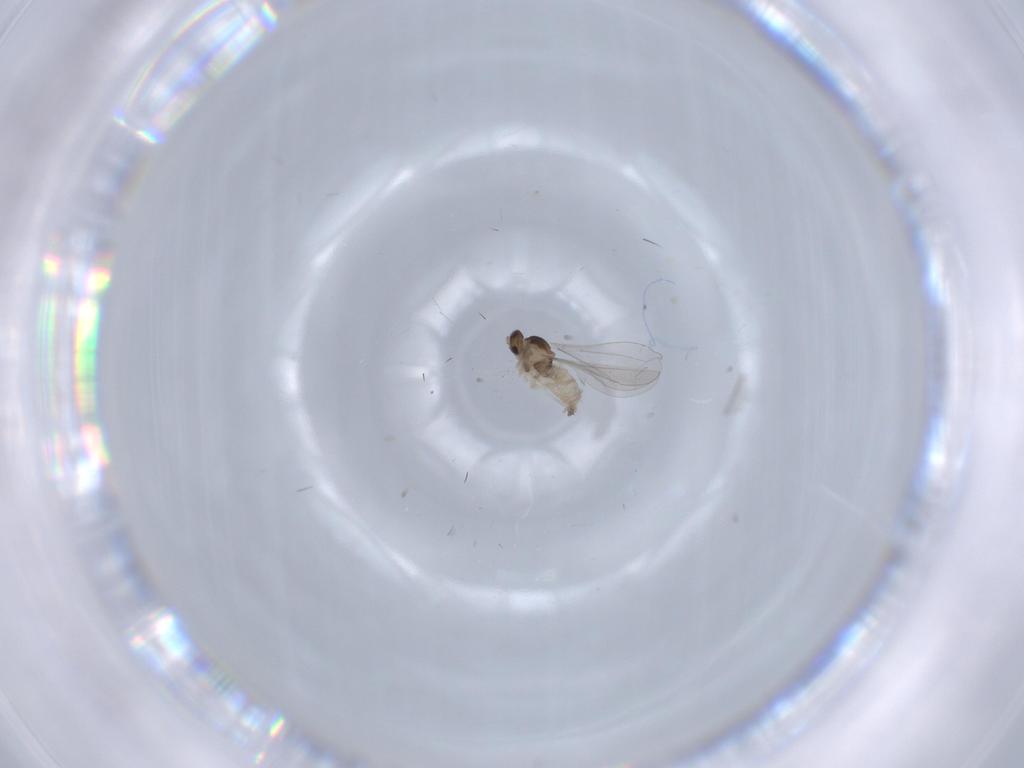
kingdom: Animalia
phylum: Arthropoda
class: Insecta
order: Diptera
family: Cecidomyiidae
